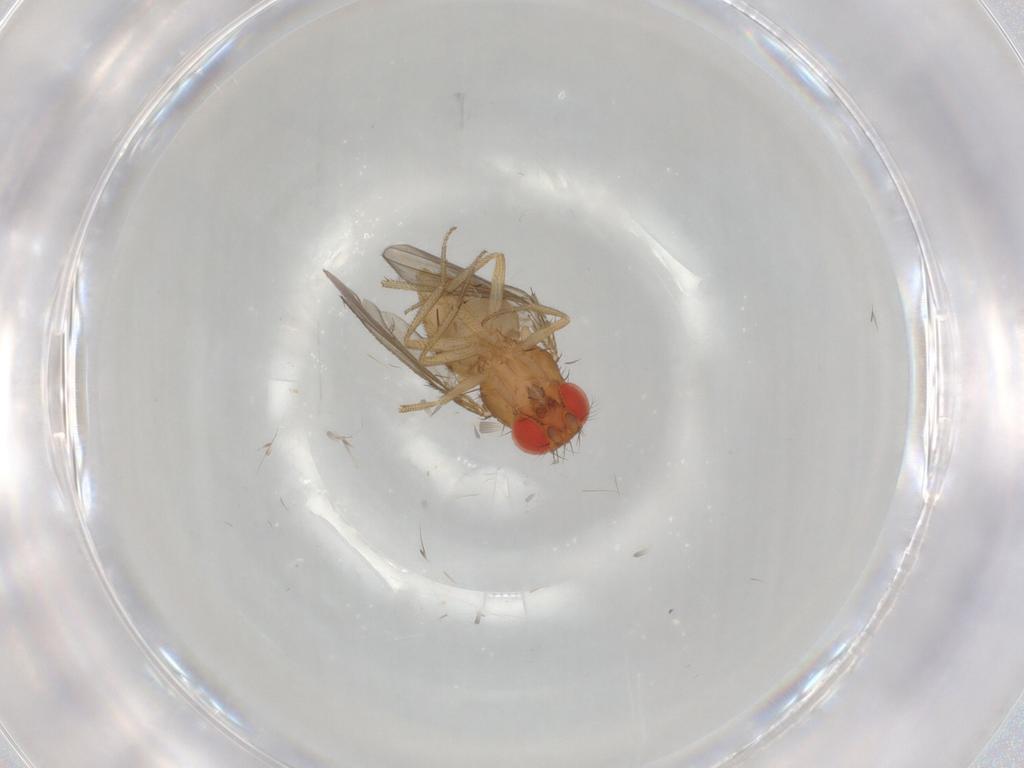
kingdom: Animalia
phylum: Arthropoda
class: Insecta
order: Diptera
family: Drosophilidae
